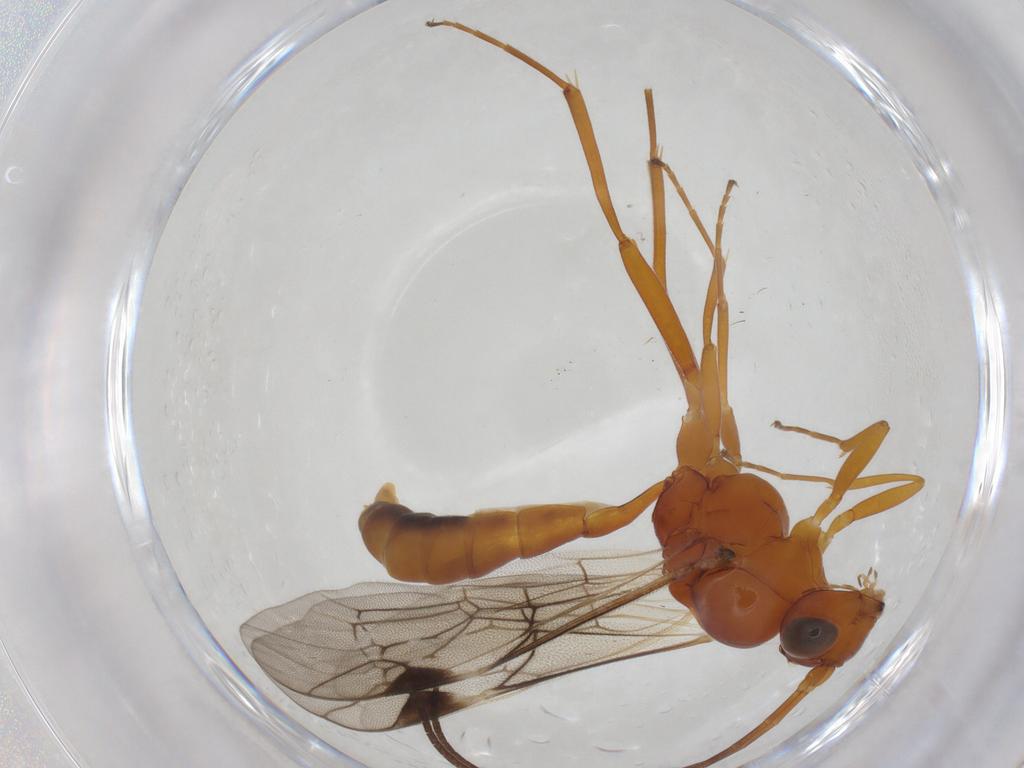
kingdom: Animalia
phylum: Arthropoda
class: Insecta
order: Hymenoptera
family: Ichneumonidae
